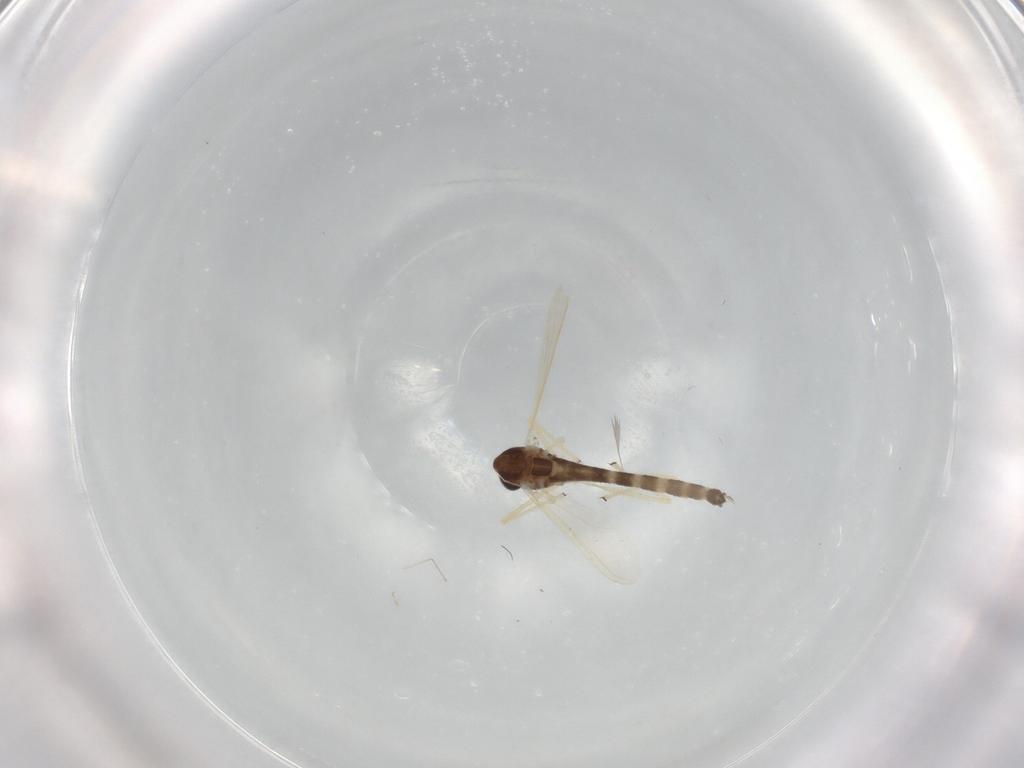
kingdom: Animalia
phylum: Arthropoda
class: Insecta
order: Diptera
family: Chironomidae
